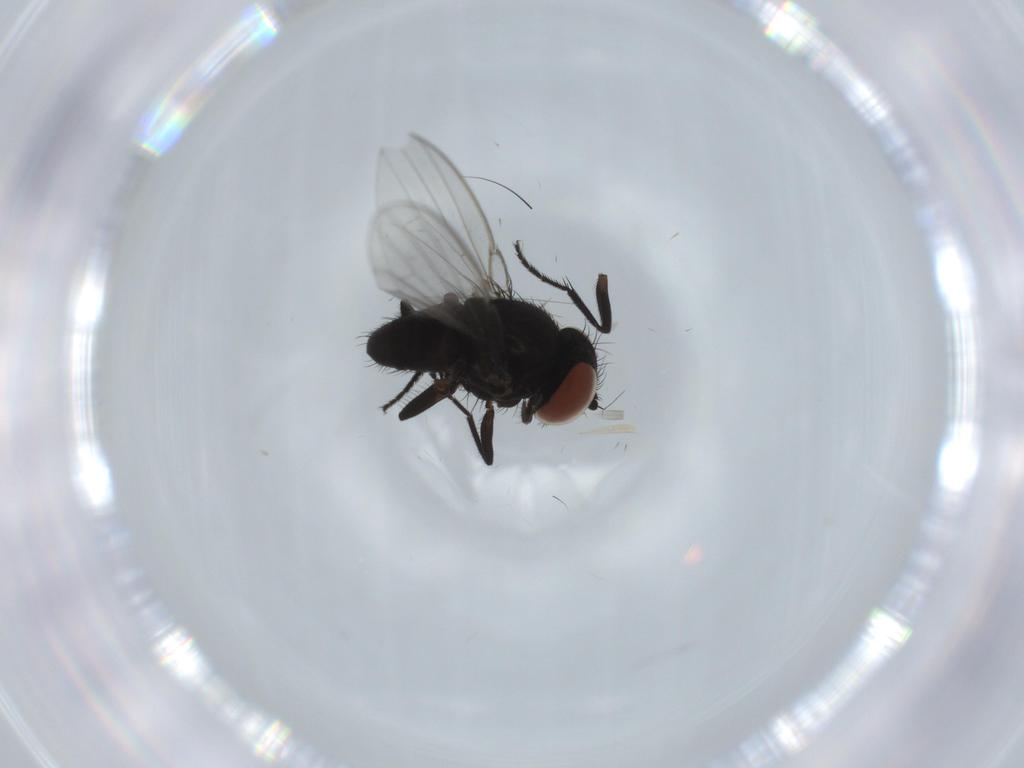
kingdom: Animalia
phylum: Arthropoda
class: Insecta
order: Diptera
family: Milichiidae
